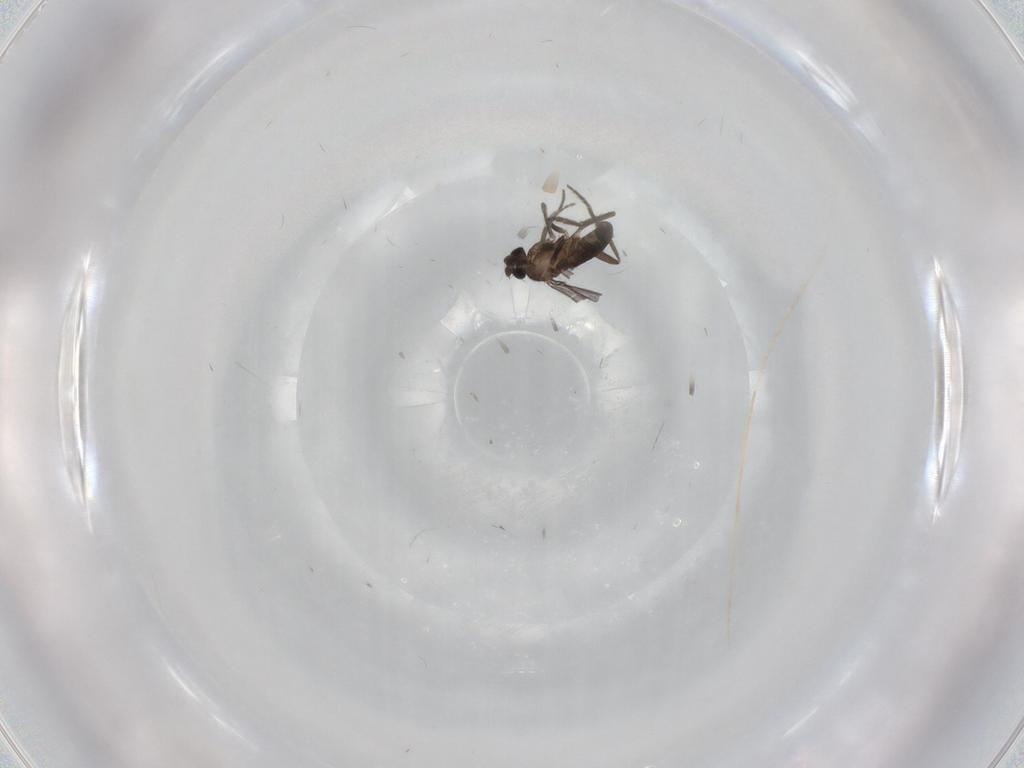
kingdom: Animalia
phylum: Arthropoda
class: Insecta
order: Diptera
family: Phoridae
